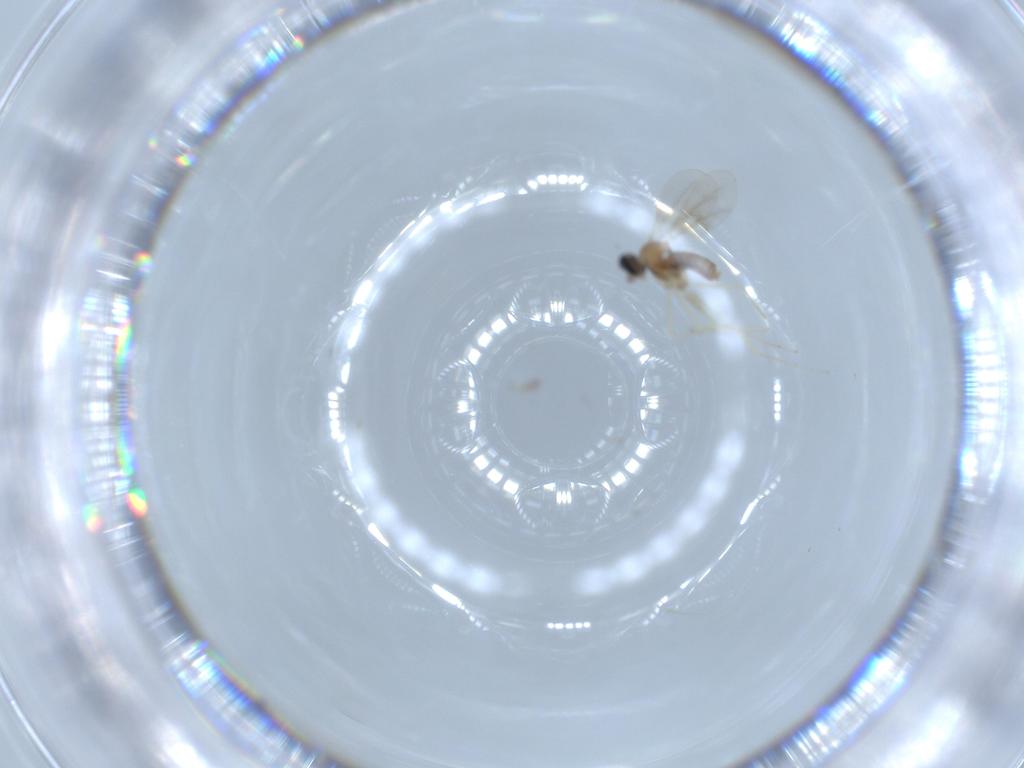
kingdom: Animalia
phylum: Arthropoda
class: Insecta
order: Diptera
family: Cecidomyiidae
